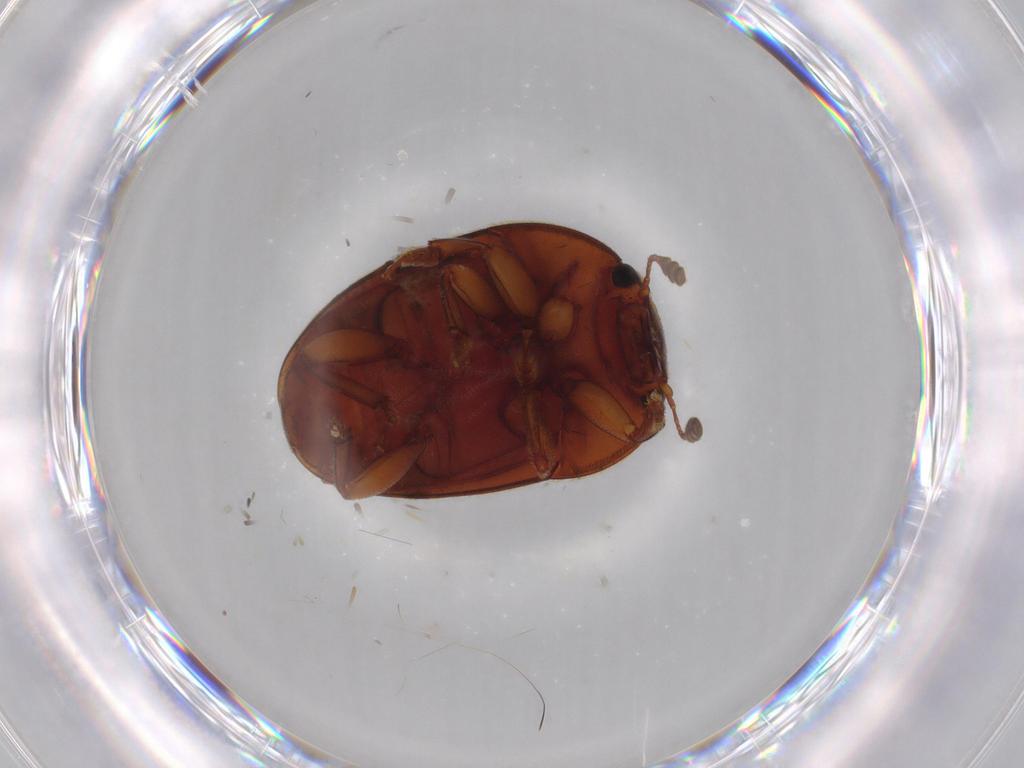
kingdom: Animalia
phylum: Arthropoda
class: Insecta
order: Coleoptera
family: Nitidulidae
